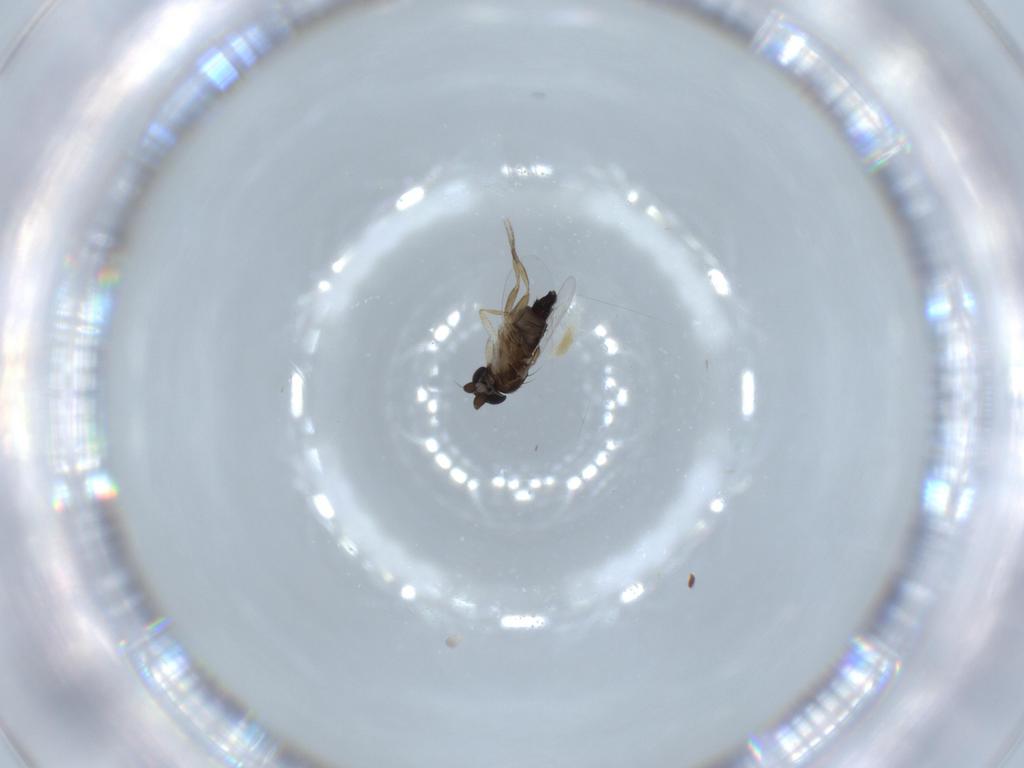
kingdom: Animalia
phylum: Arthropoda
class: Insecta
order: Diptera
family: Phoridae
